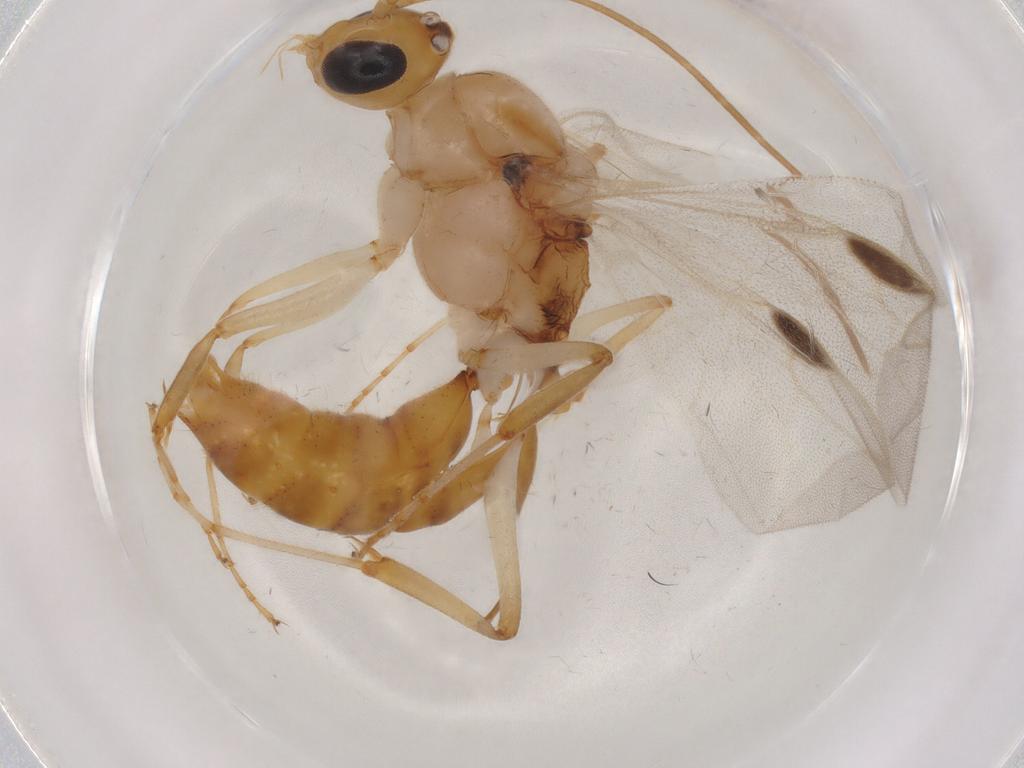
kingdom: Animalia
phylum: Arthropoda
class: Insecta
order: Hymenoptera
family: Formicidae
